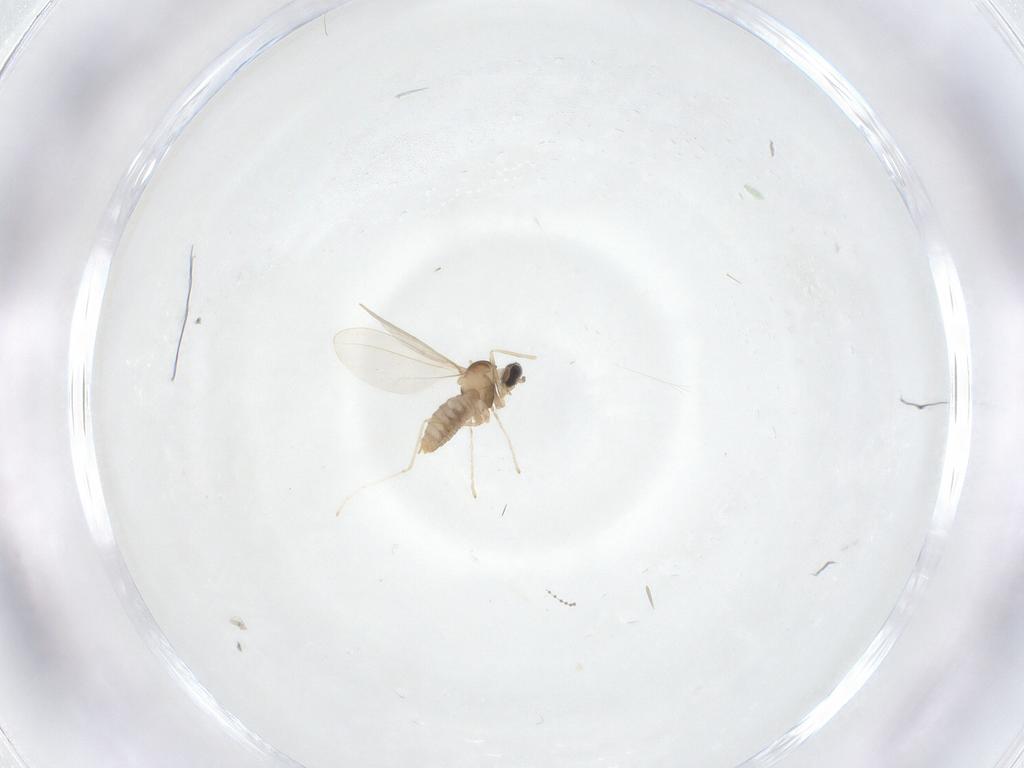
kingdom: Animalia
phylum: Arthropoda
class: Insecta
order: Diptera
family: Cecidomyiidae
